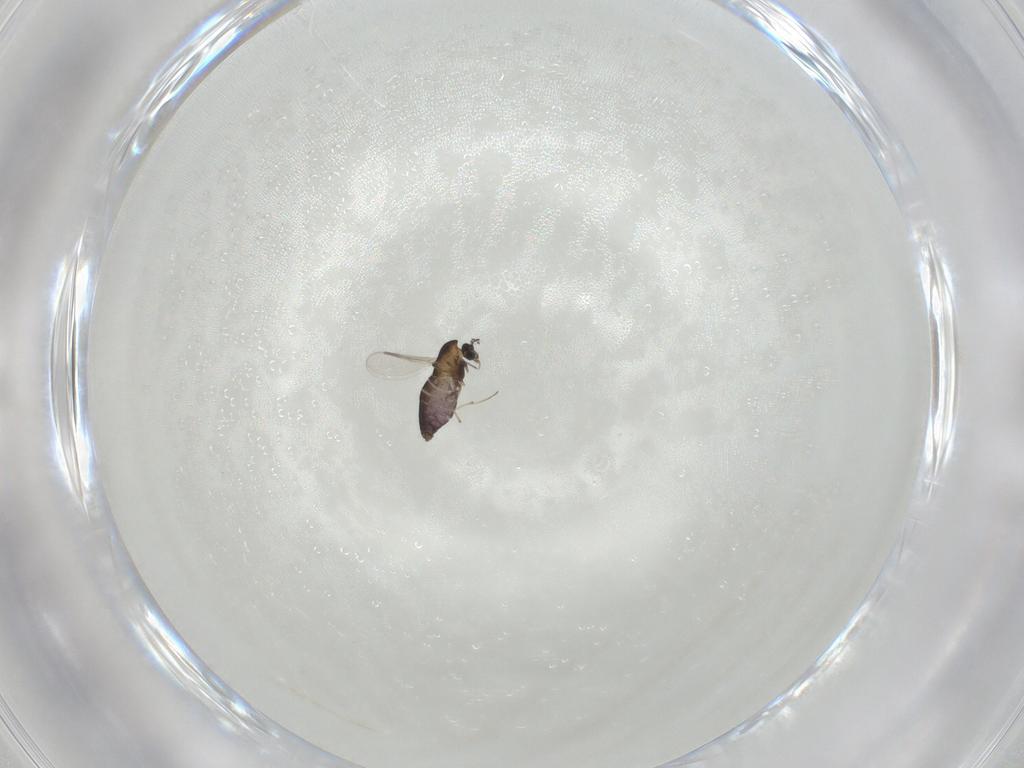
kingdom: Animalia
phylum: Arthropoda
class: Insecta
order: Diptera
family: Chironomidae
